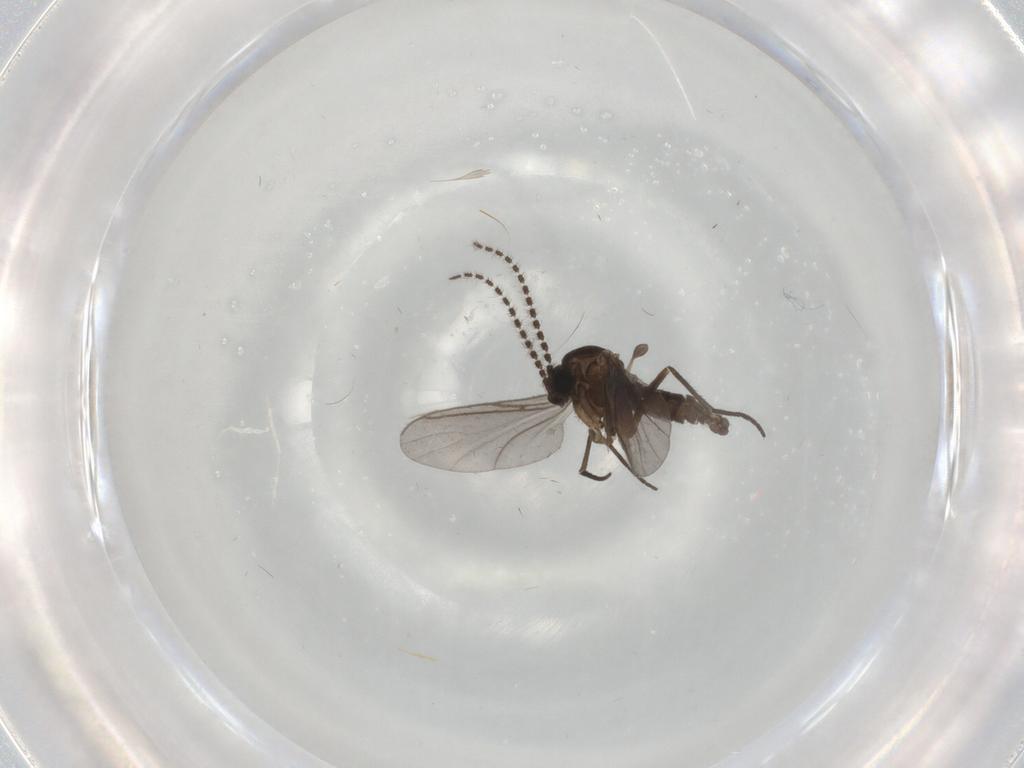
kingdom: Animalia
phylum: Arthropoda
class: Insecta
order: Diptera
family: Sciaridae
